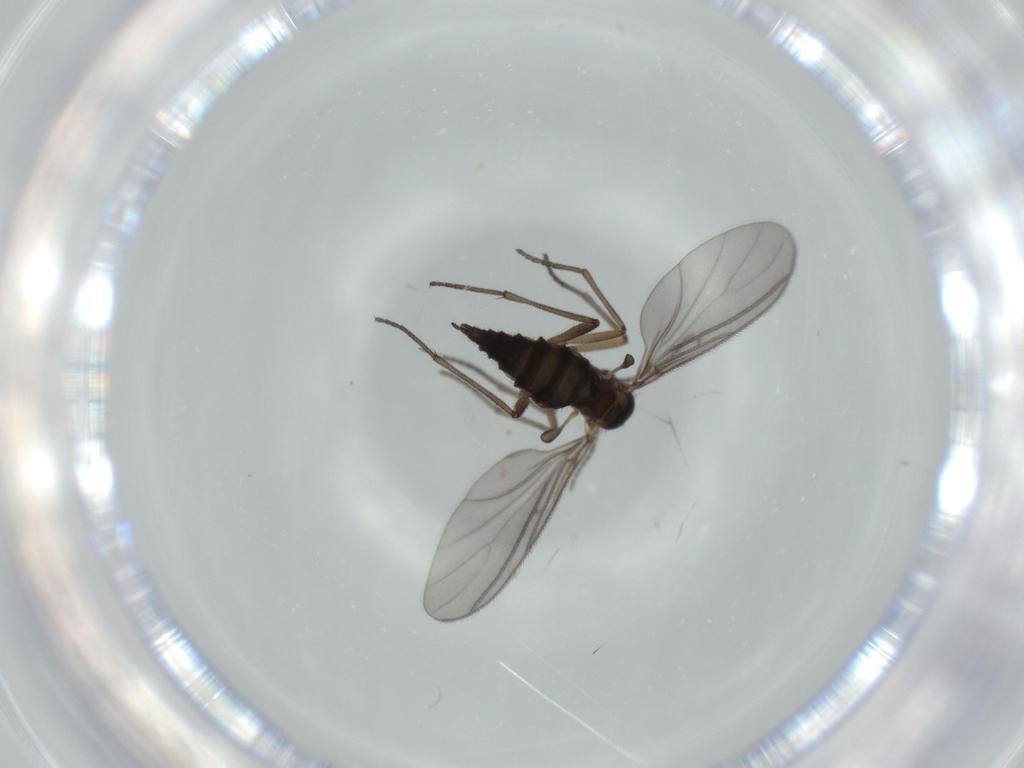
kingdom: Animalia
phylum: Arthropoda
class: Insecta
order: Diptera
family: Sciaridae
